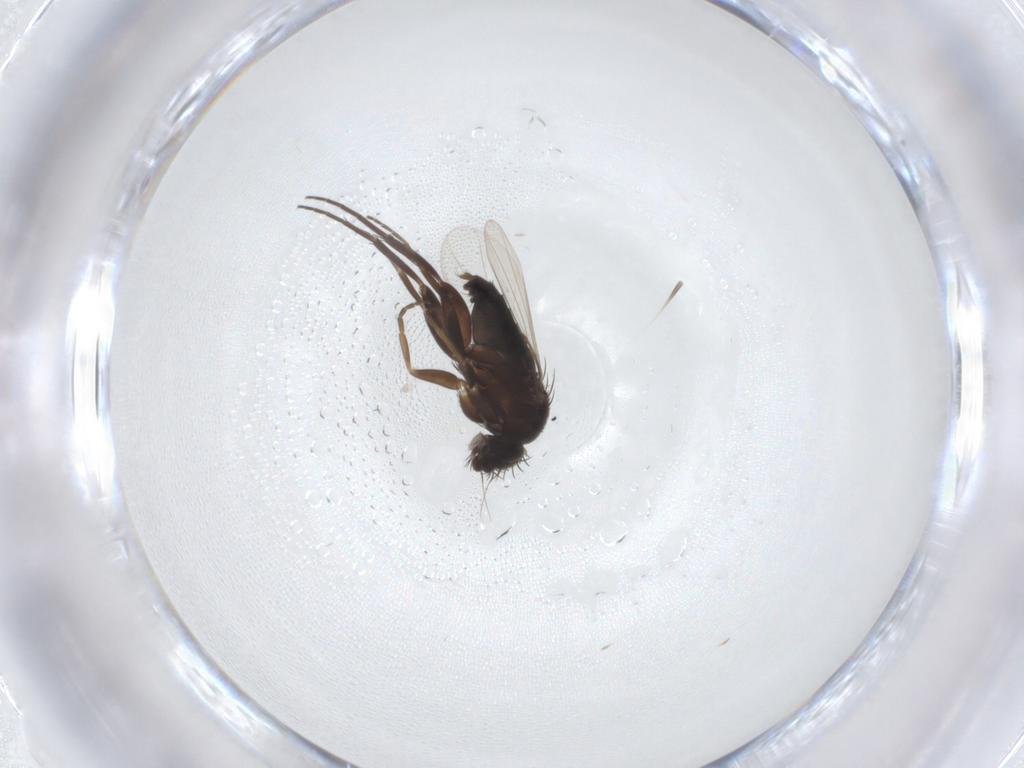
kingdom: Animalia
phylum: Arthropoda
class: Insecta
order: Diptera
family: Phoridae
